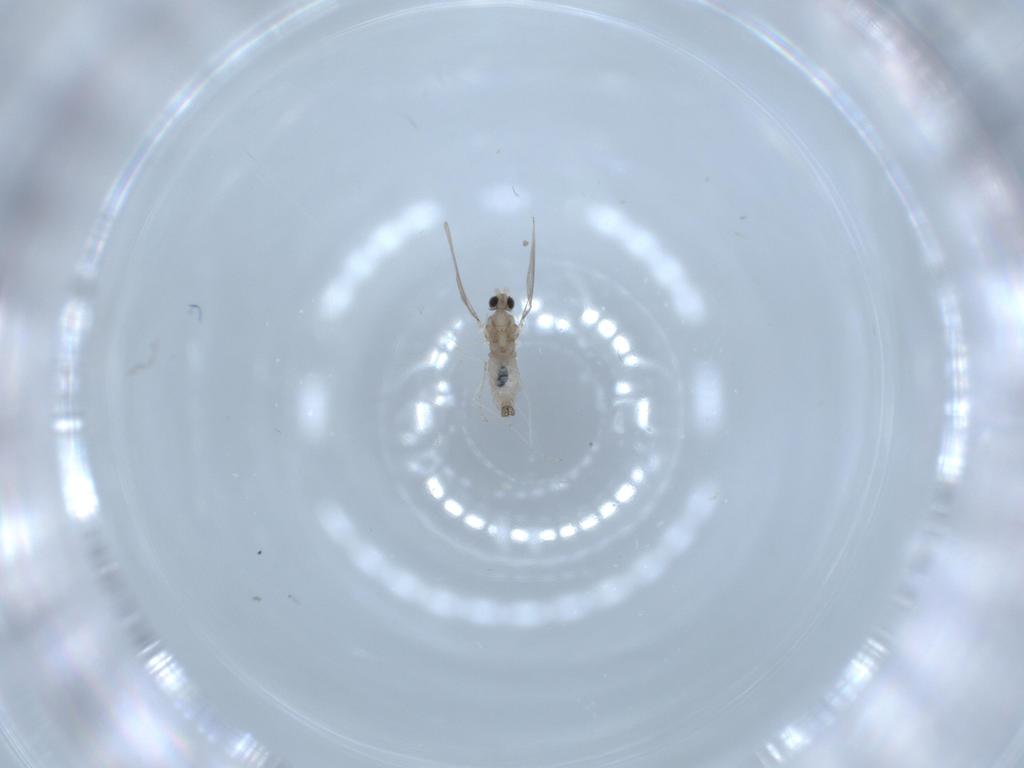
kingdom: Animalia
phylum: Arthropoda
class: Insecta
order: Diptera
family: Cecidomyiidae
